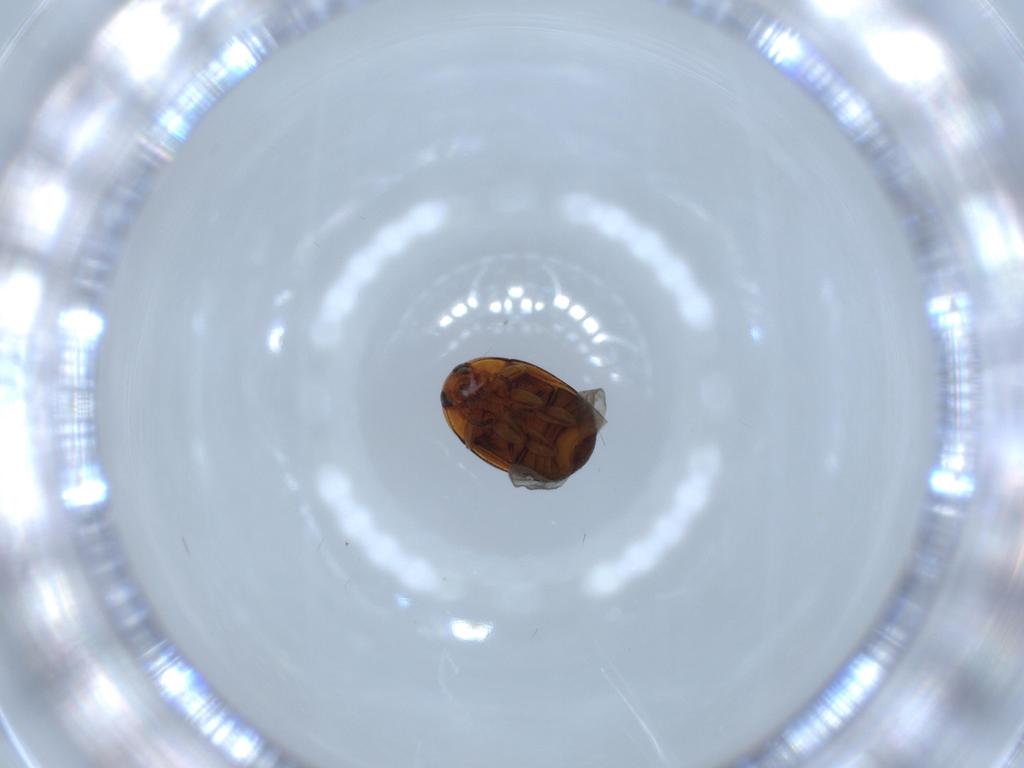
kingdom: Animalia
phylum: Arthropoda
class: Insecta
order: Coleoptera
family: Chrysomelidae
